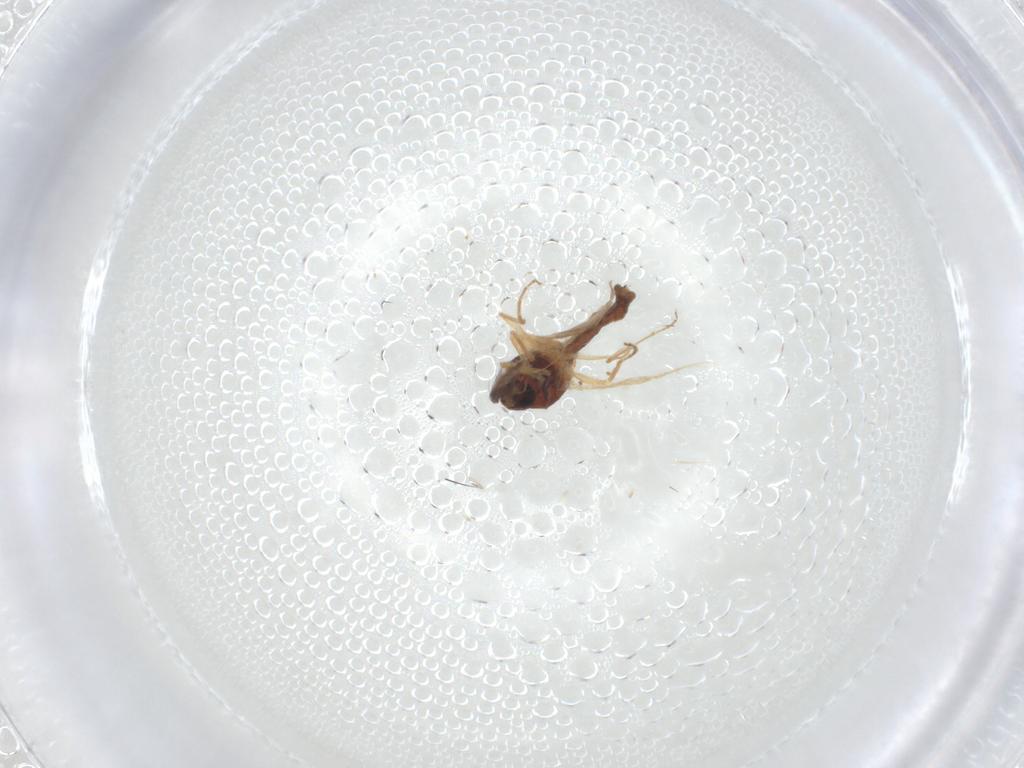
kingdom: Animalia
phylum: Arthropoda
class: Insecta
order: Diptera
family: Ceratopogonidae
